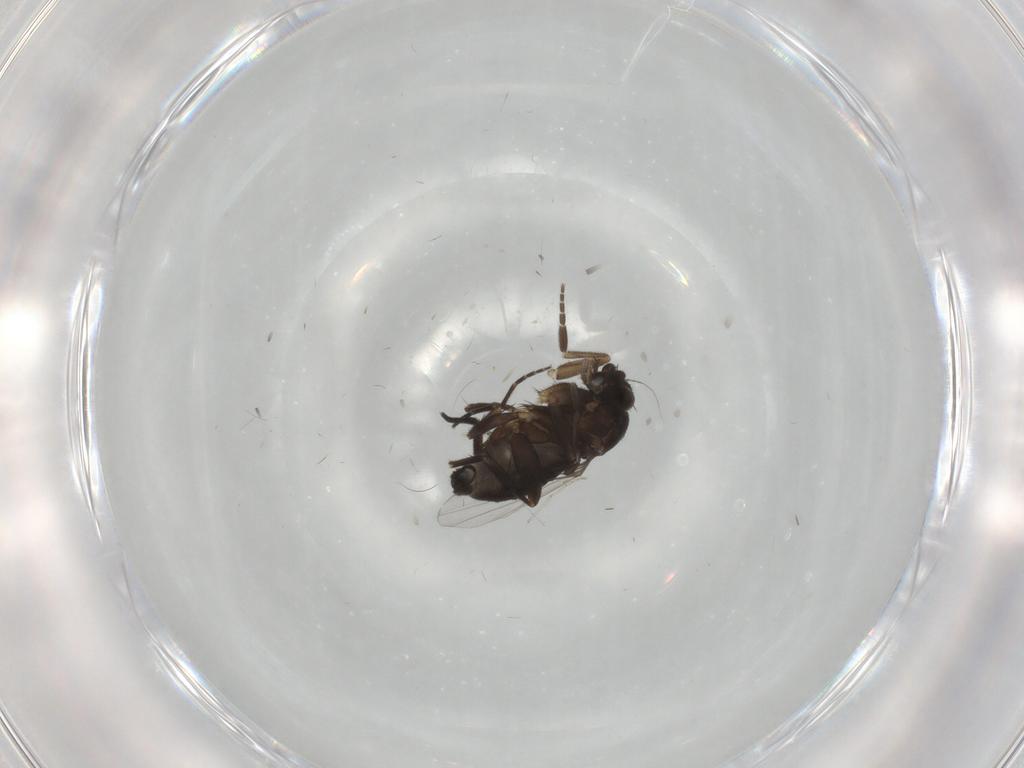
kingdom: Animalia
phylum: Arthropoda
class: Insecta
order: Diptera
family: Phoridae
